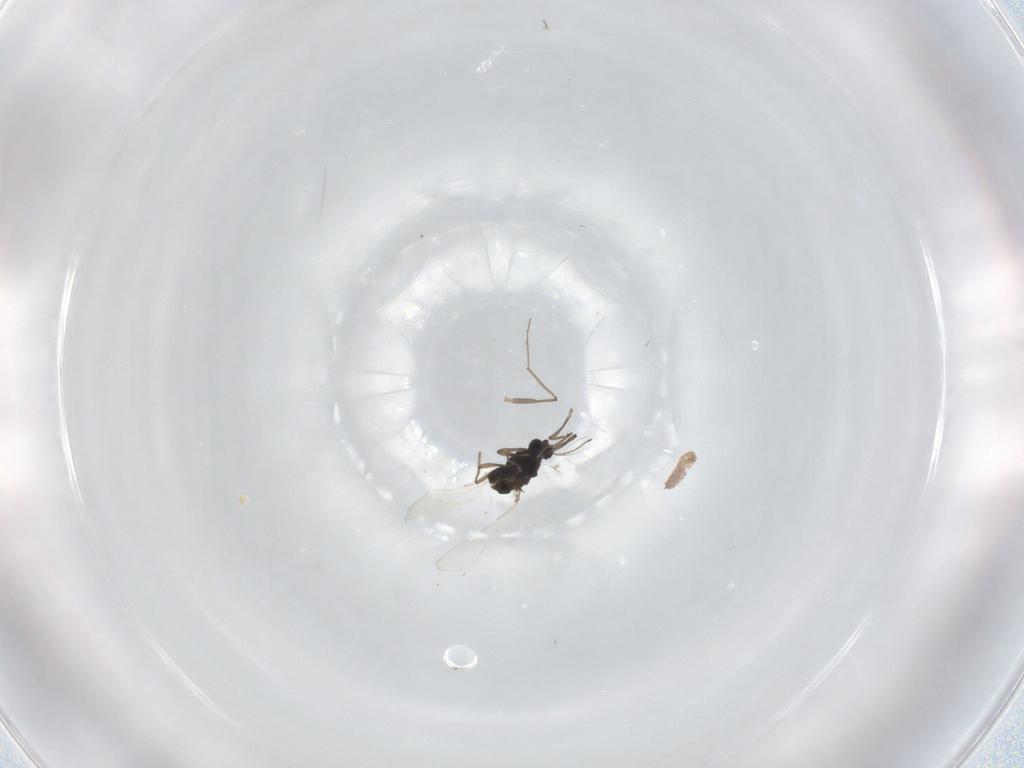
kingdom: Animalia
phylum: Arthropoda
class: Insecta
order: Diptera
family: Chironomidae
